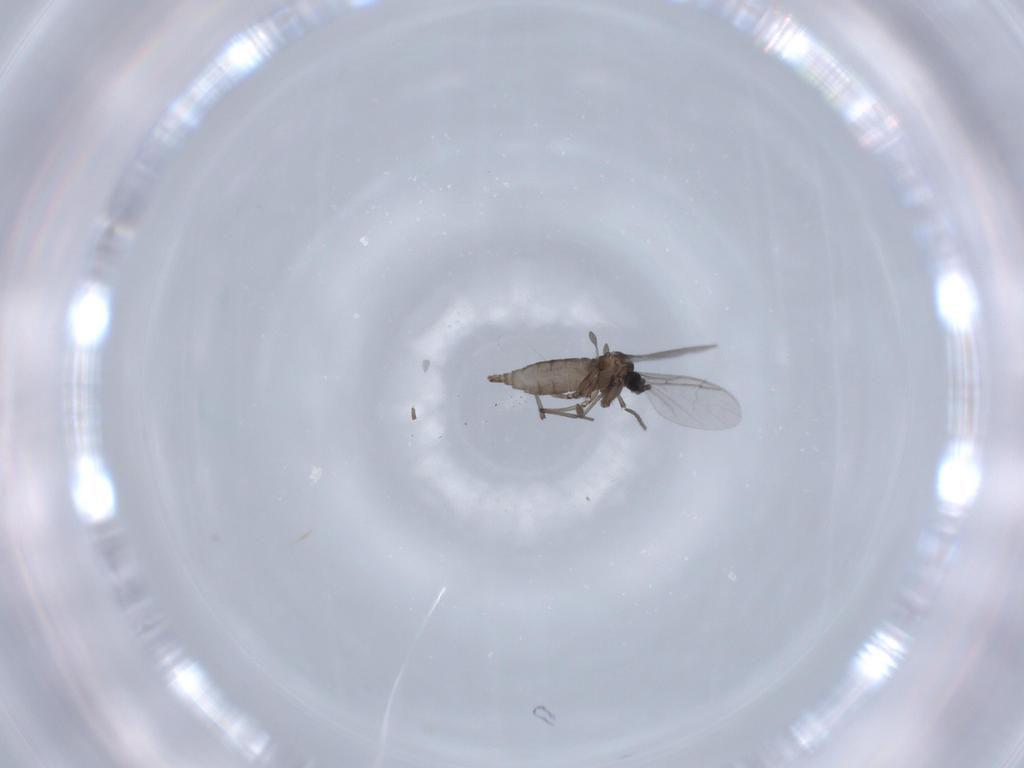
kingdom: Animalia
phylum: Arthropoda
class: Insecta
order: Diptera
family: Sciaridae
